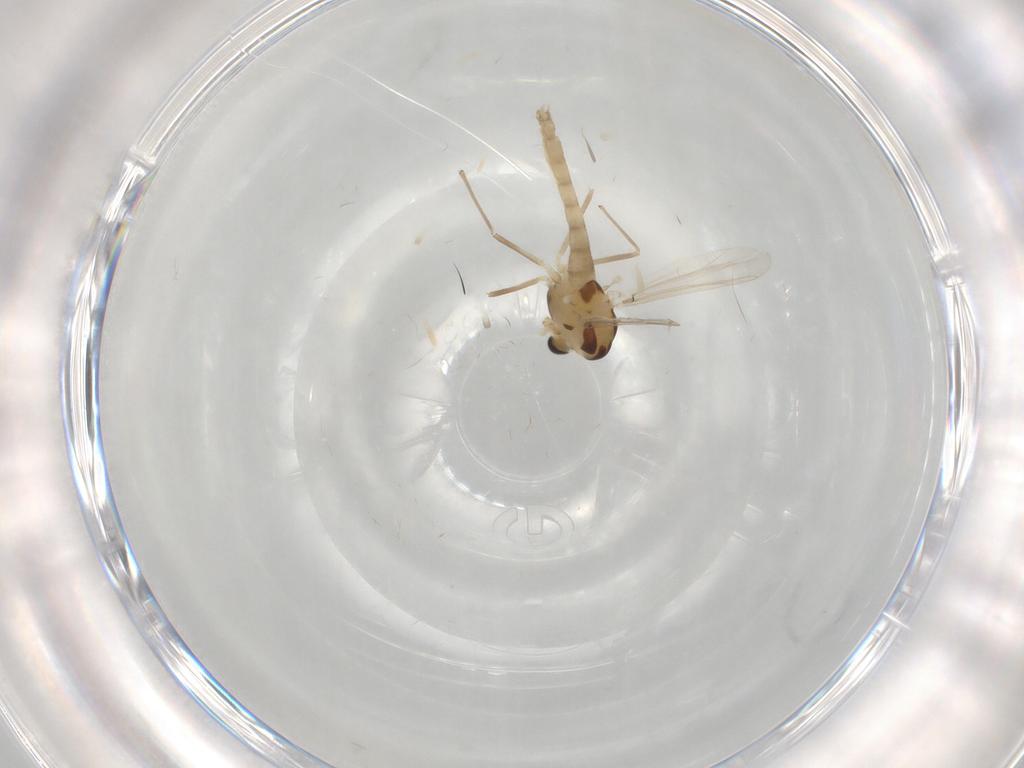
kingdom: Animalia
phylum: Arthropoda
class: Insecta
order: Diptera
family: Chironomidae
